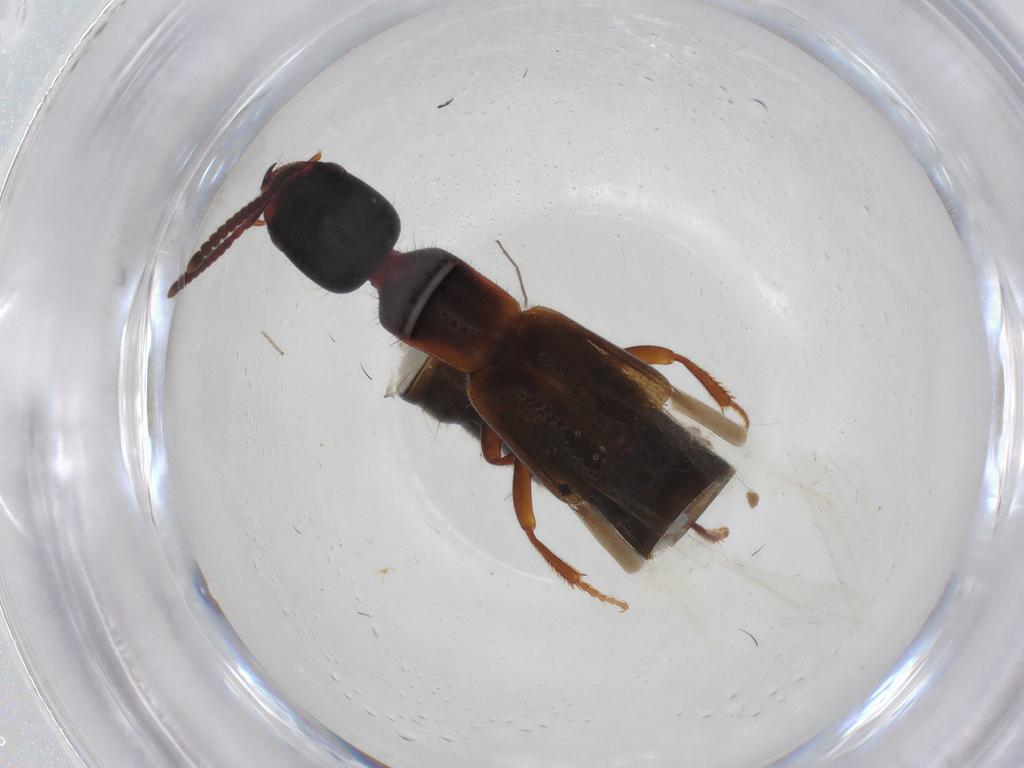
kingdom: Animalia
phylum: Arthropoda
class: Insecta
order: Coleoptera
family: Staphylinidae
